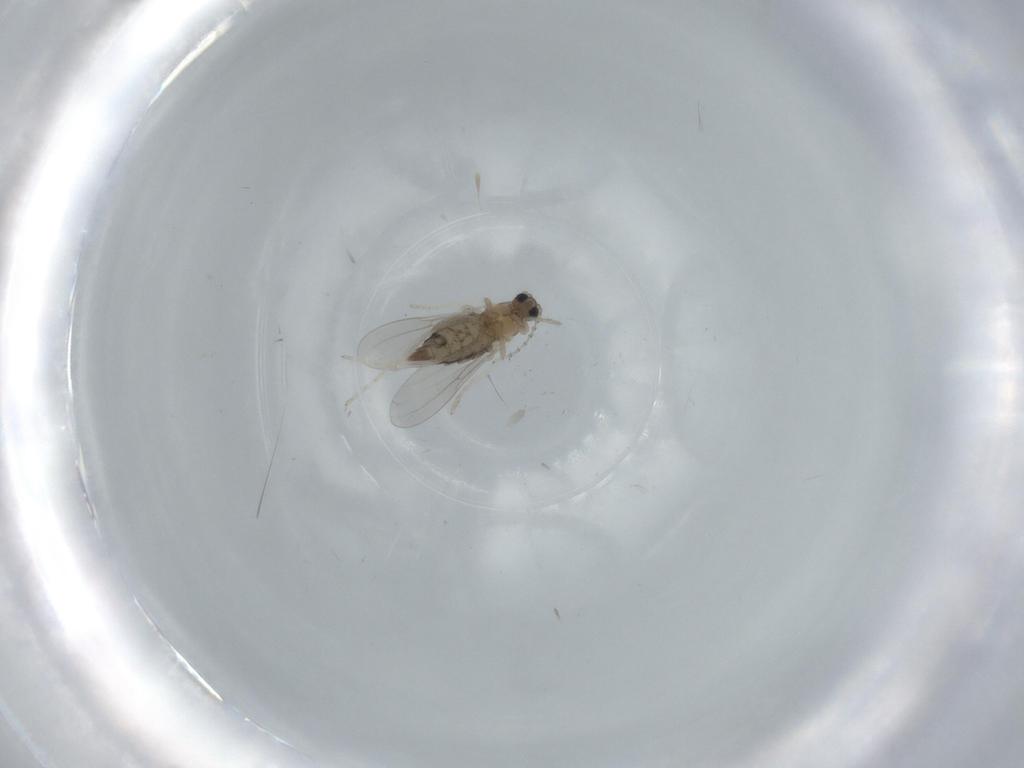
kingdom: Animalia
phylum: Arthropoda
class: Insecta
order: Diptera
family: Cecidomyiidae
